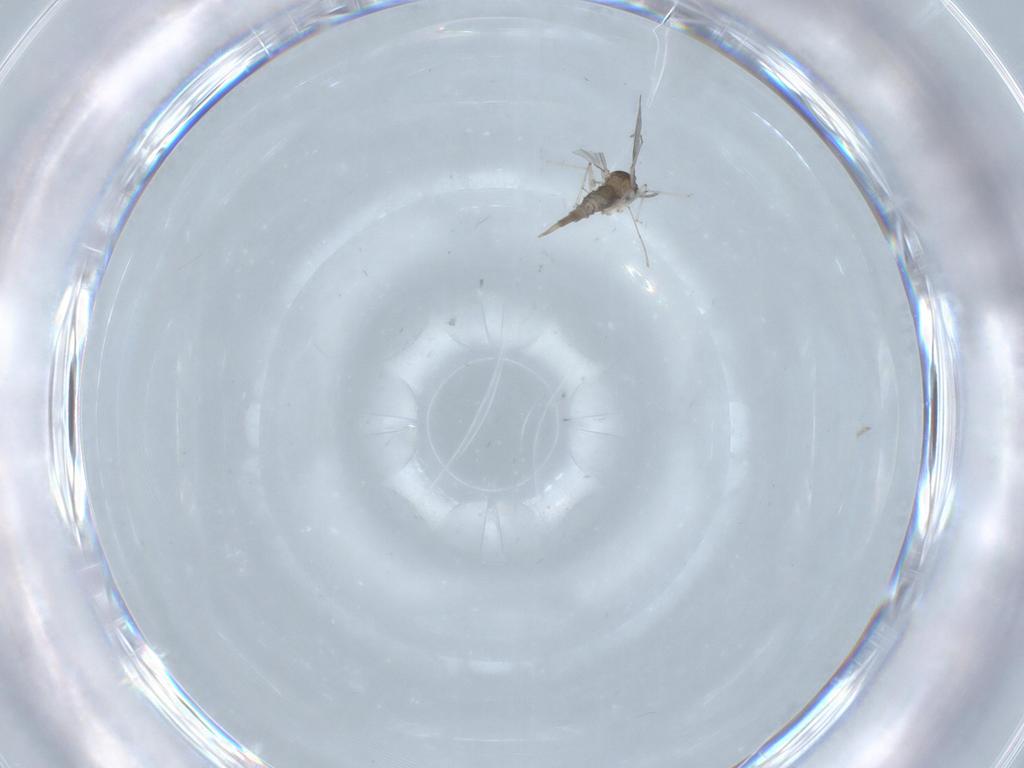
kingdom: Animalia
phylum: Arthropoda
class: Insecta
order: Diptera
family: Cecidomyiidae
